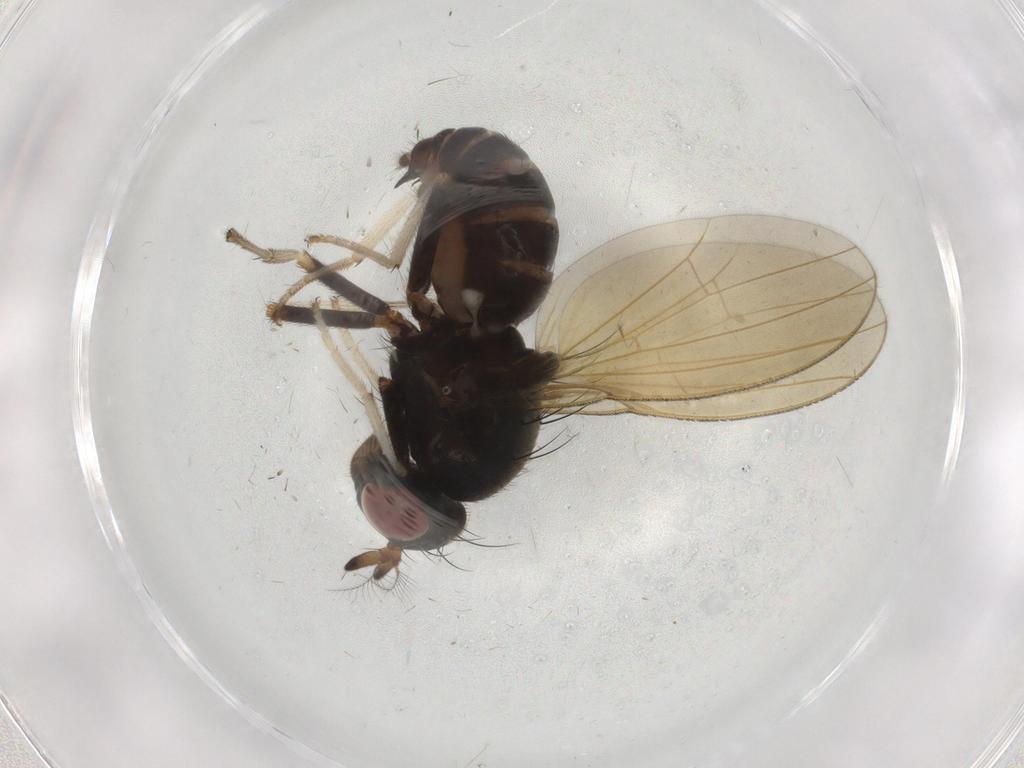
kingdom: Animalia
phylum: Arthropoda
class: Insecta
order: Diptera
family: Lauxaniidae
